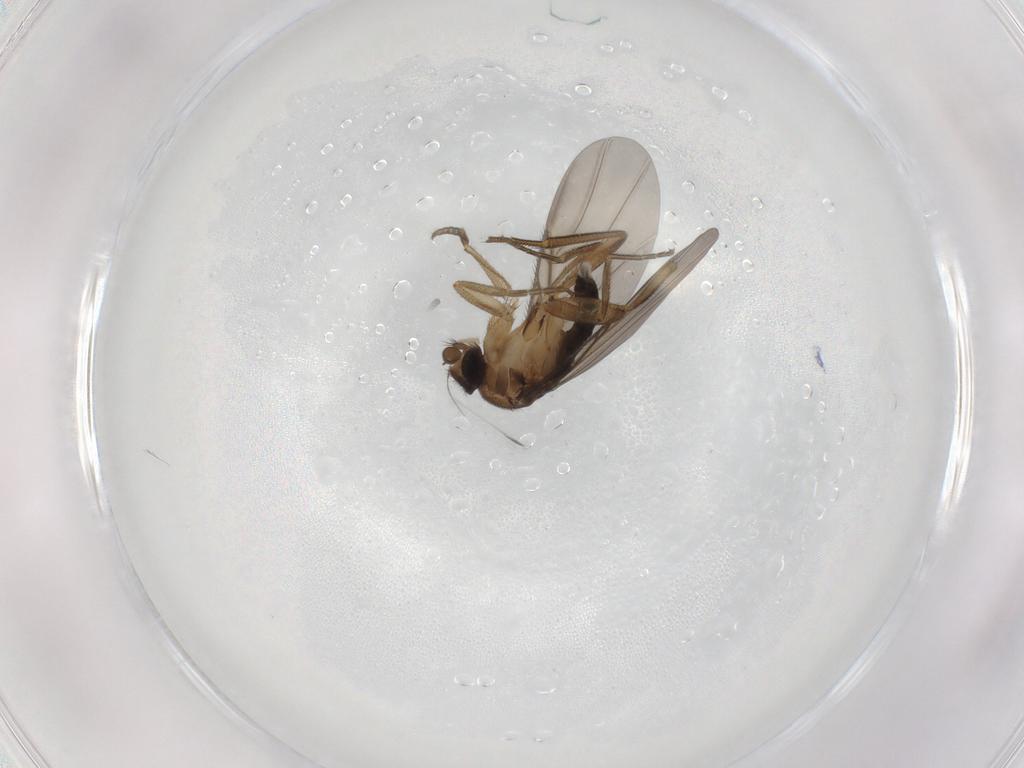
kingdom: Animalia
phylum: Arthropoda
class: Insecta
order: Diptera
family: Phoridae
